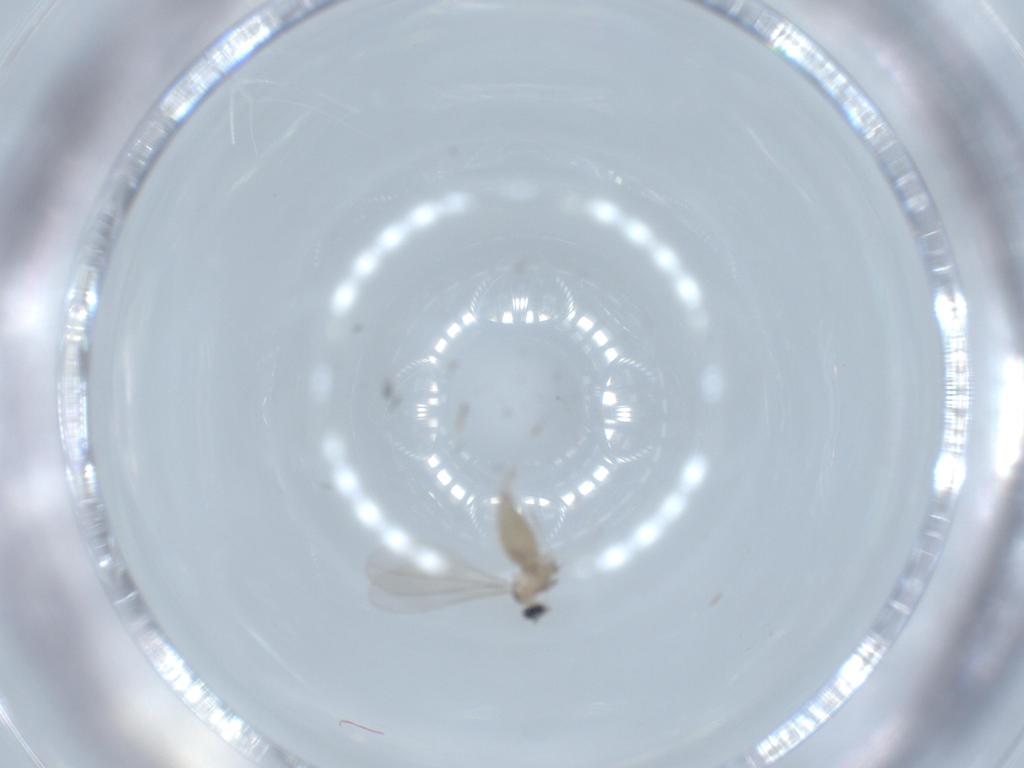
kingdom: Animalia
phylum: Arthropoda
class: Insecta
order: Diptera
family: Cecidomyiidae
